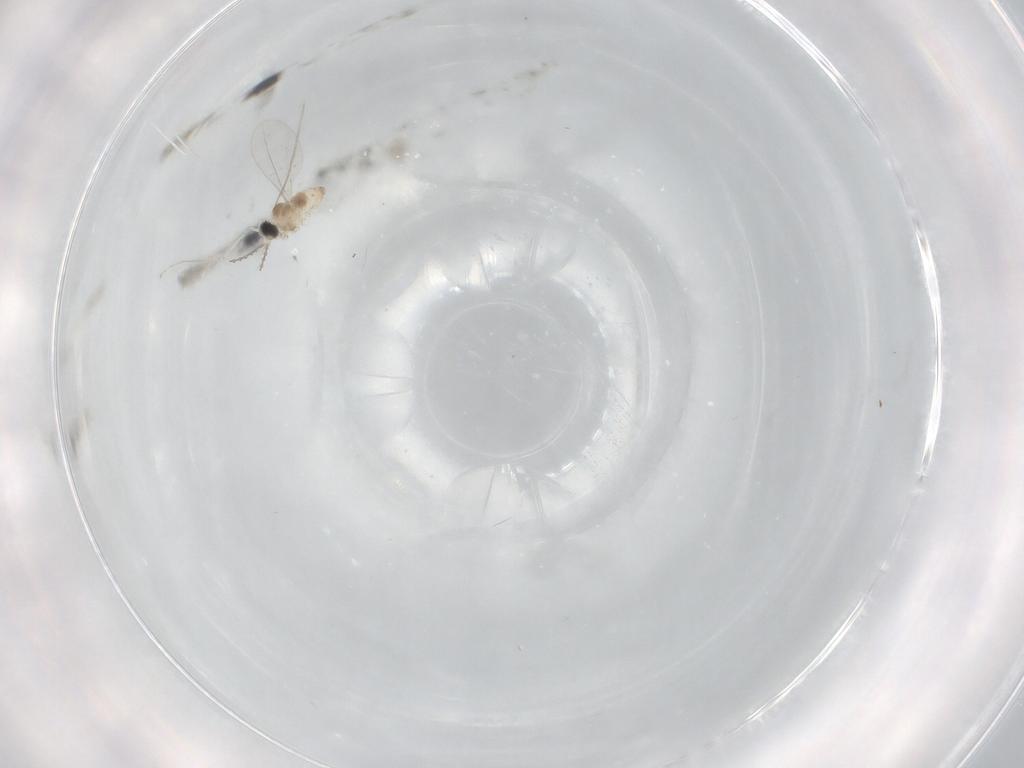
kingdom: Animalia
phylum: Arthropoda
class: Insecta
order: Diptera
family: Cecidomyiidae
